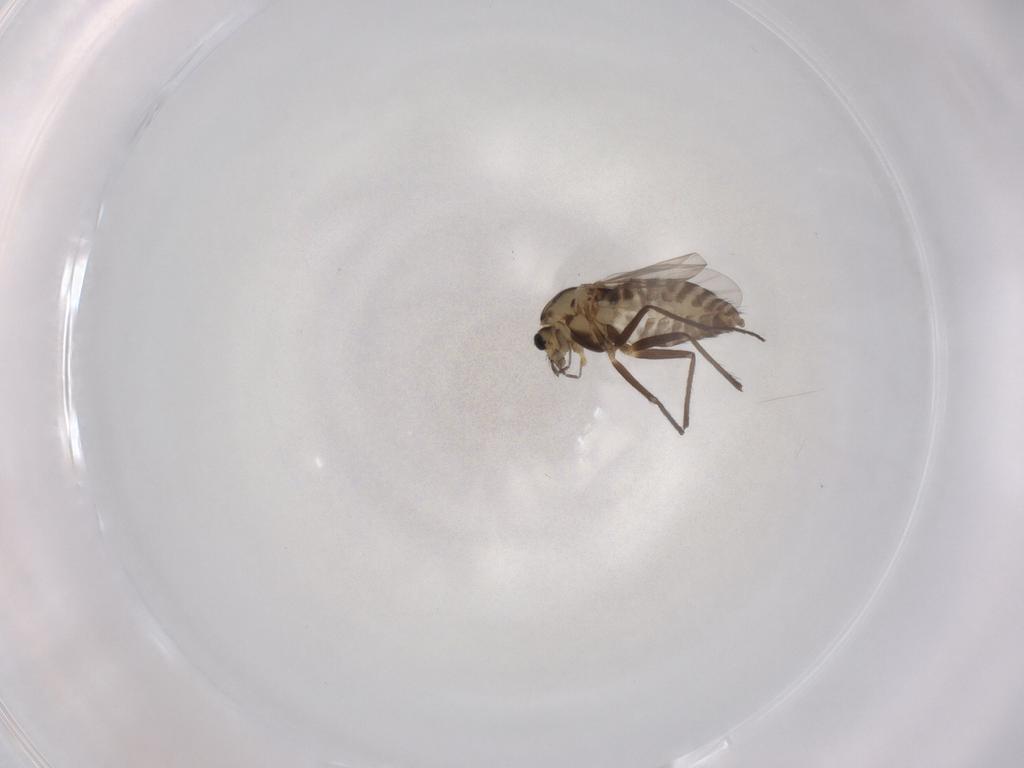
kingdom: Animalia
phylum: Arthropoda
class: Insecta
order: Diptera
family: Chironomidae
